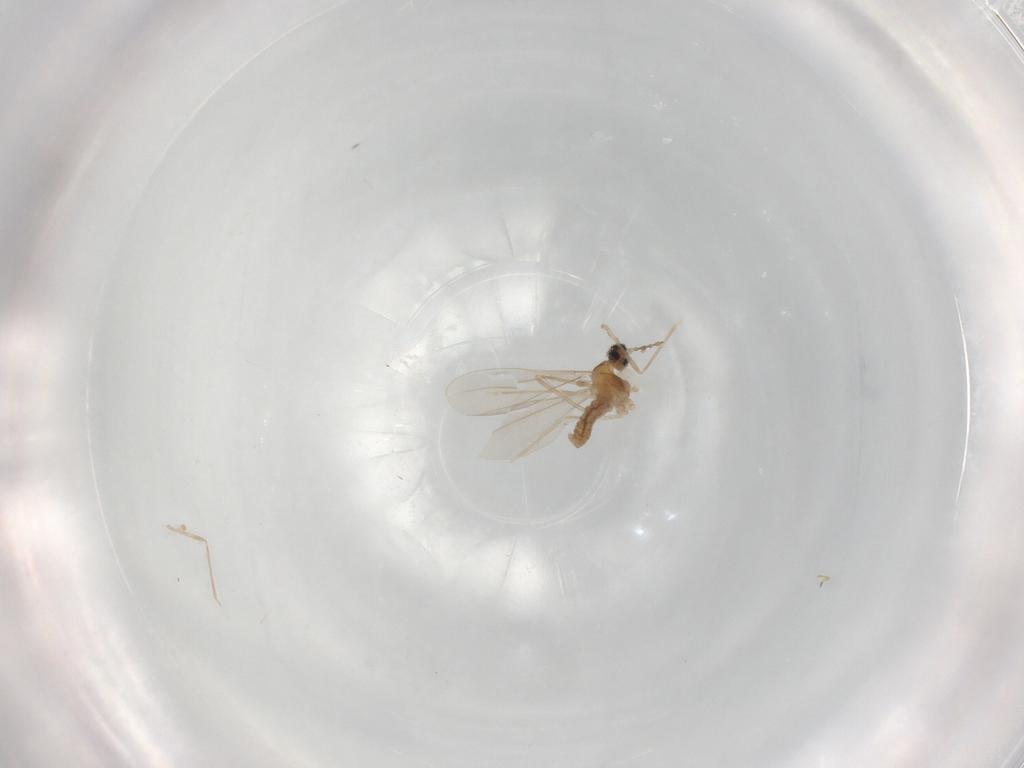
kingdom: Animalia
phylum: Arthropoda
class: Insecta
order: Diptera
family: Cecidomyiidae
